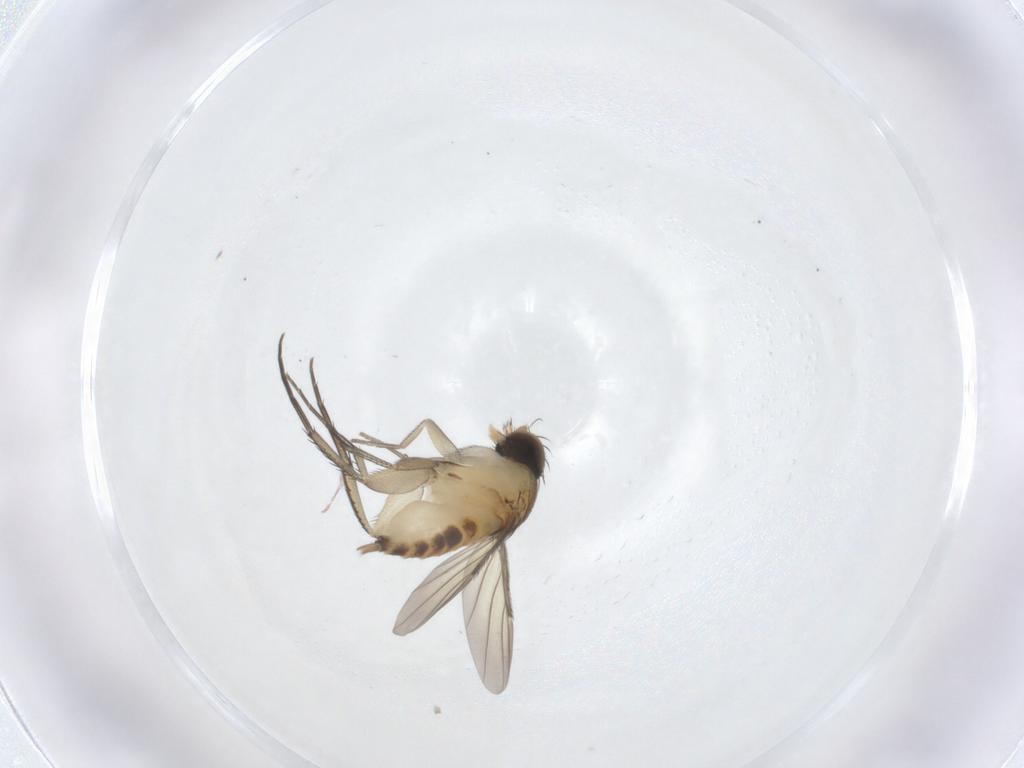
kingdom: Animalia
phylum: Arthropoda
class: Insecta
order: Diptera
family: Phoridae
